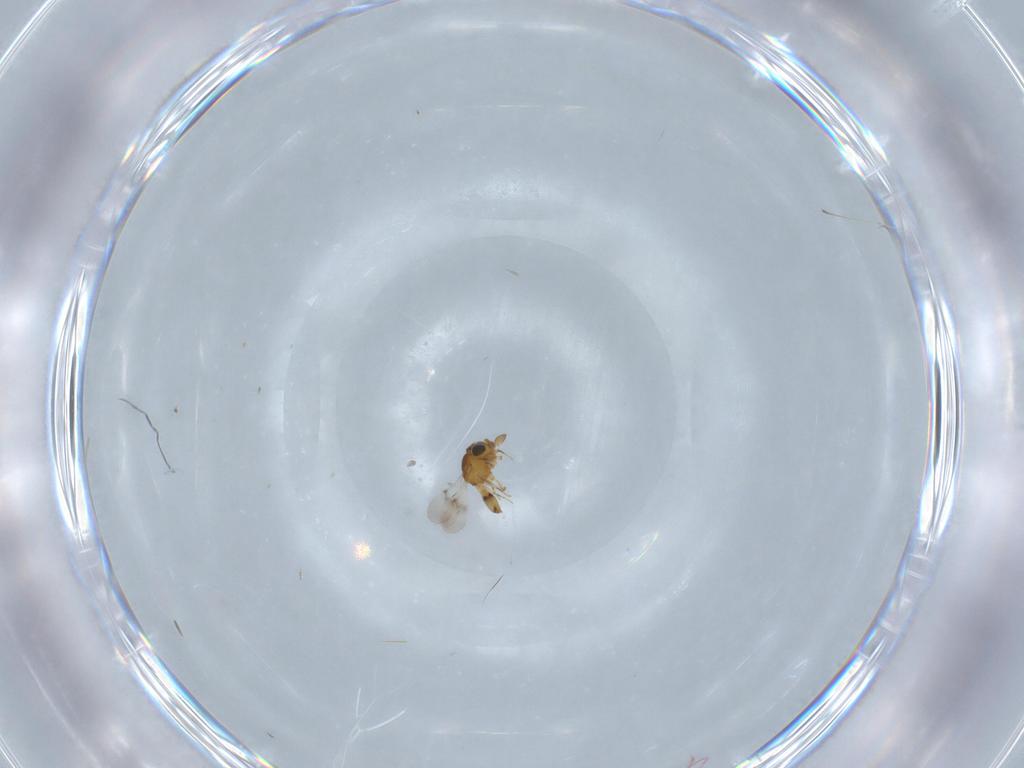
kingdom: Animalia
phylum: Arthropoda
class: Insecta
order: Hymenoptera
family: Scelionidae
